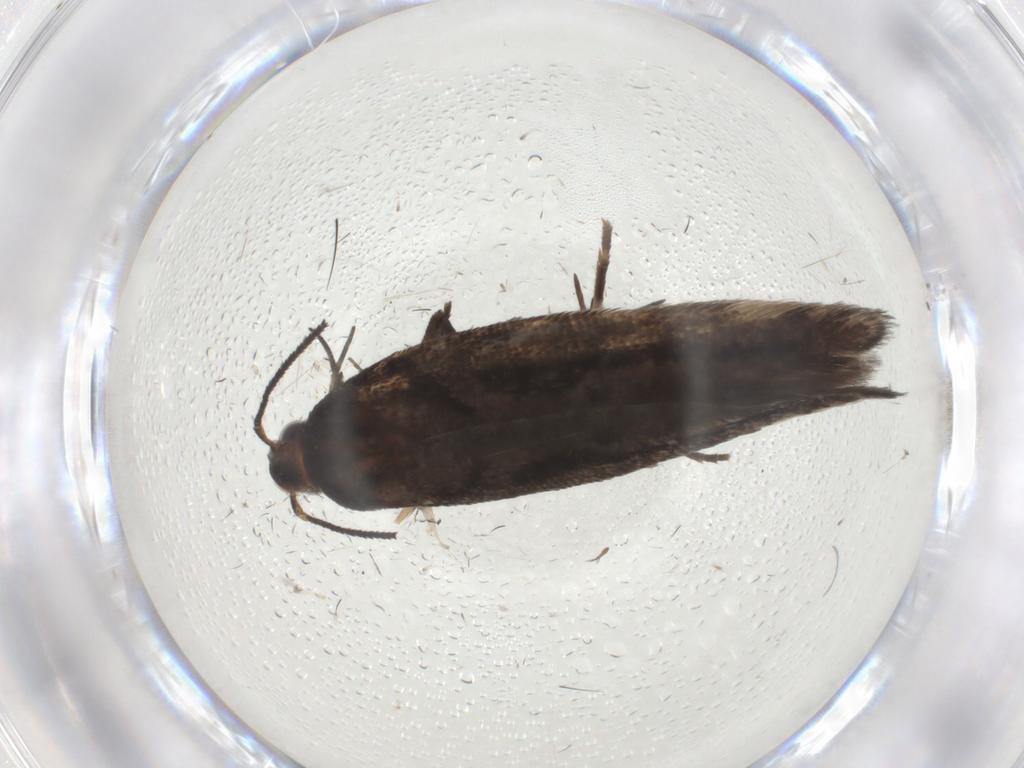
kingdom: Animalia
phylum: Arthropoda
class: Insecta
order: Lepidoptera
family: Gelechiidae
